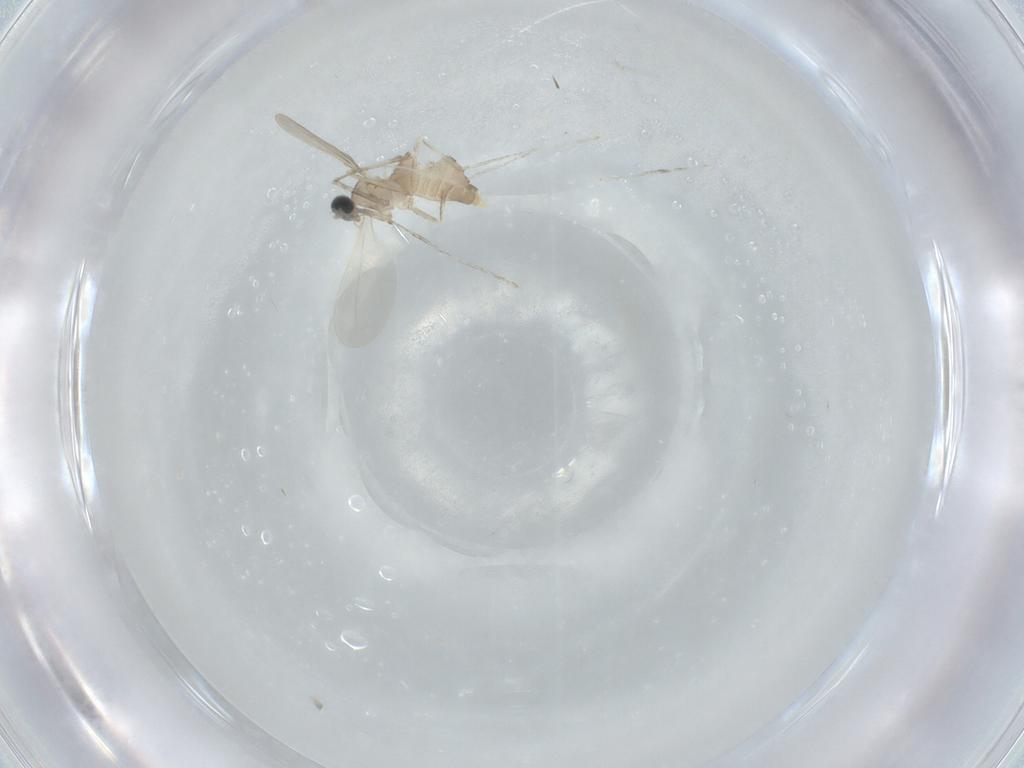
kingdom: Animalia
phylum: Arthropoda
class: Insecta
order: Diptera
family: Cecidomyiidae
